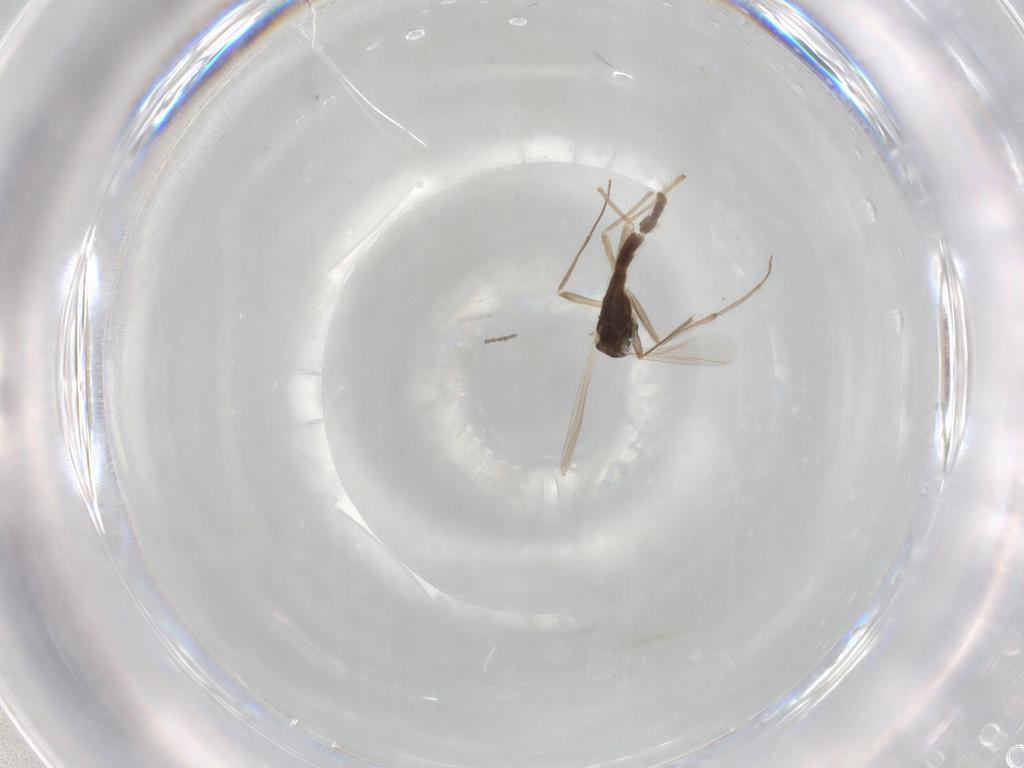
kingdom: Animalia
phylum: Arthropoda
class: Insecta
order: Diptera
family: Chironomidae
